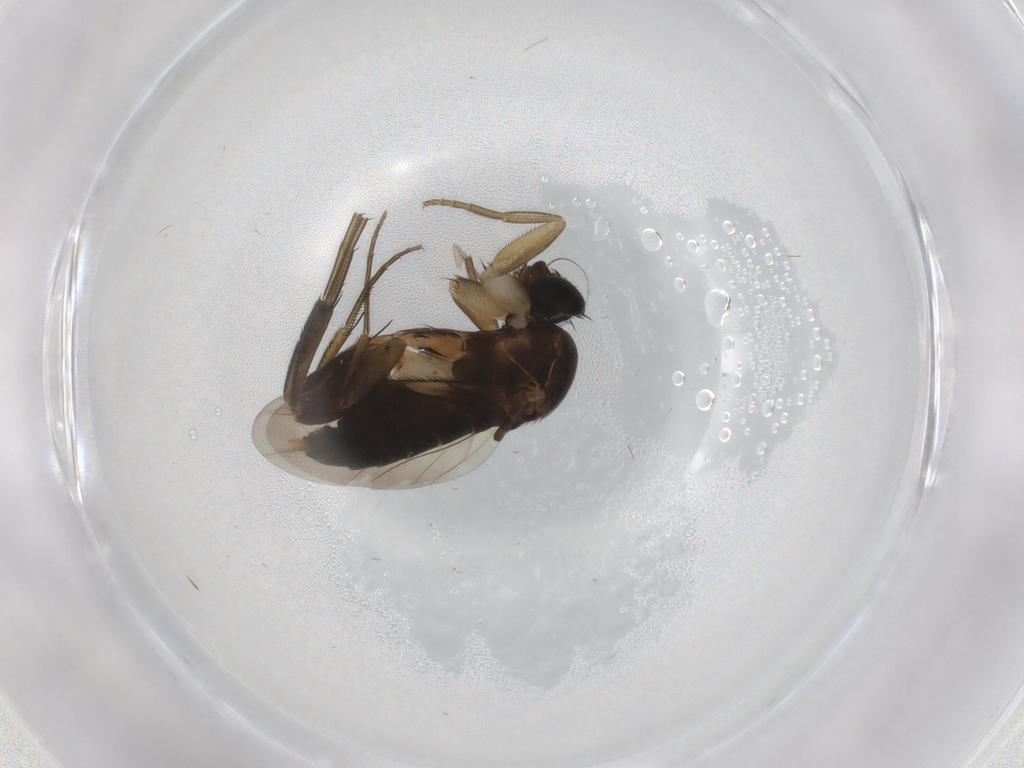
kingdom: Animalia
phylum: Arthropoda
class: Insecta
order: Diptera
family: Phoridae
